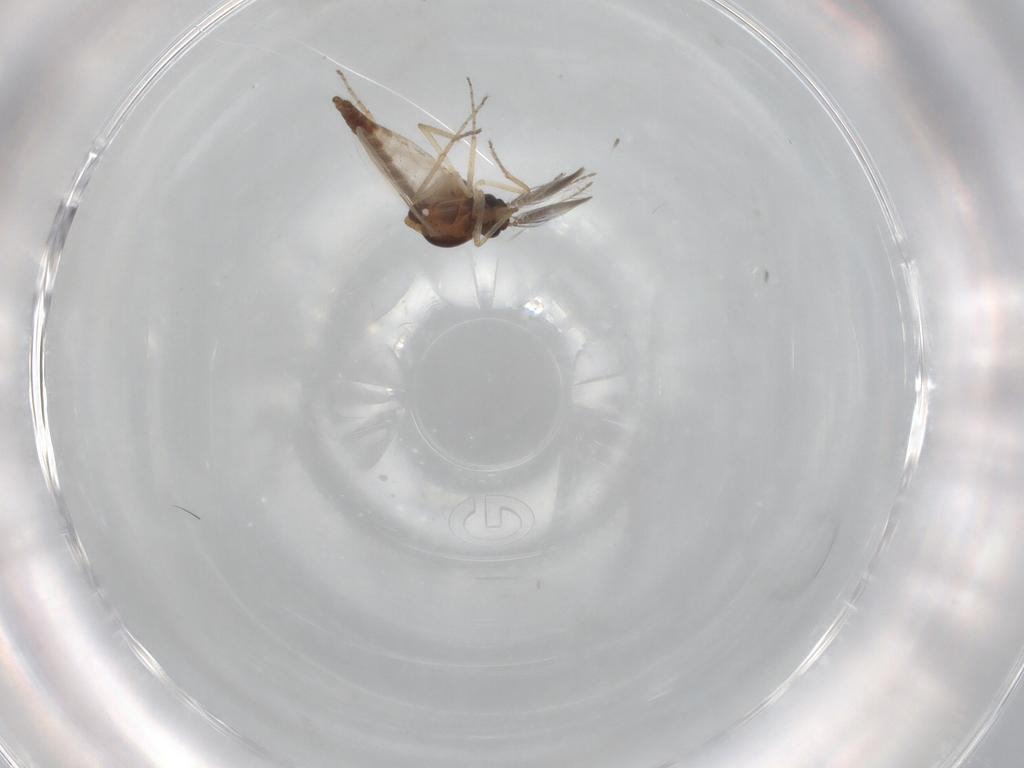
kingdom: Animalia
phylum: Arthropoda
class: Insecta
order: Diptera
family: Ceratopogonidae
